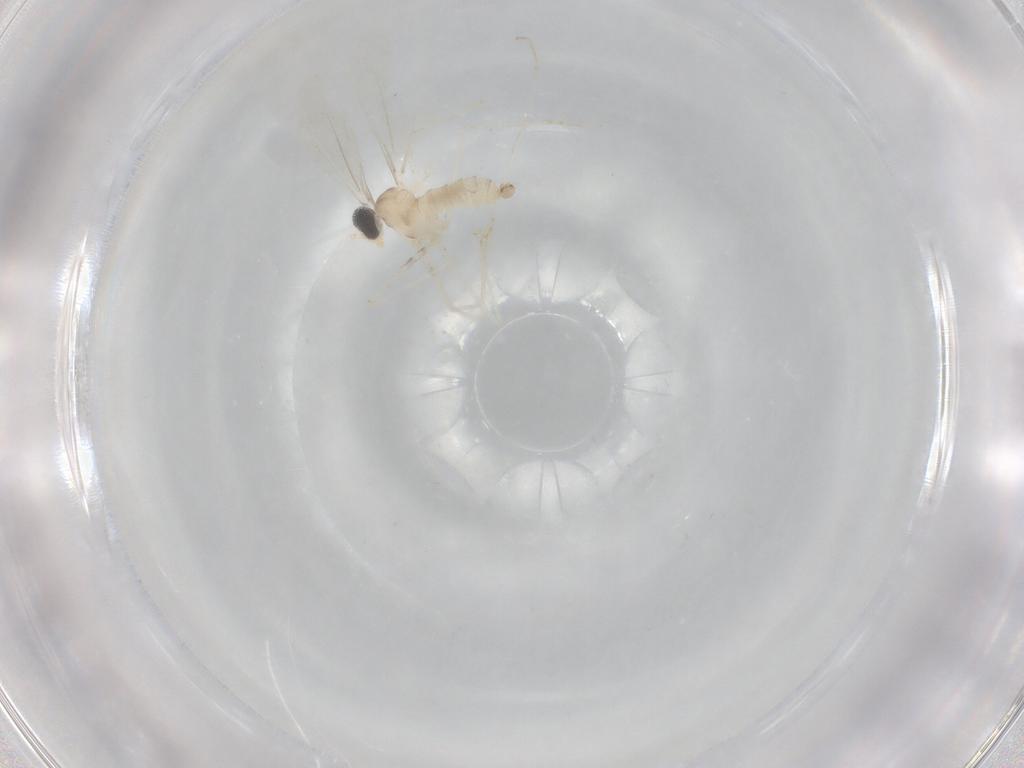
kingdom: Animalia
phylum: Arthropoda
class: Insecta
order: Diptera
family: Cecidomyiidae
